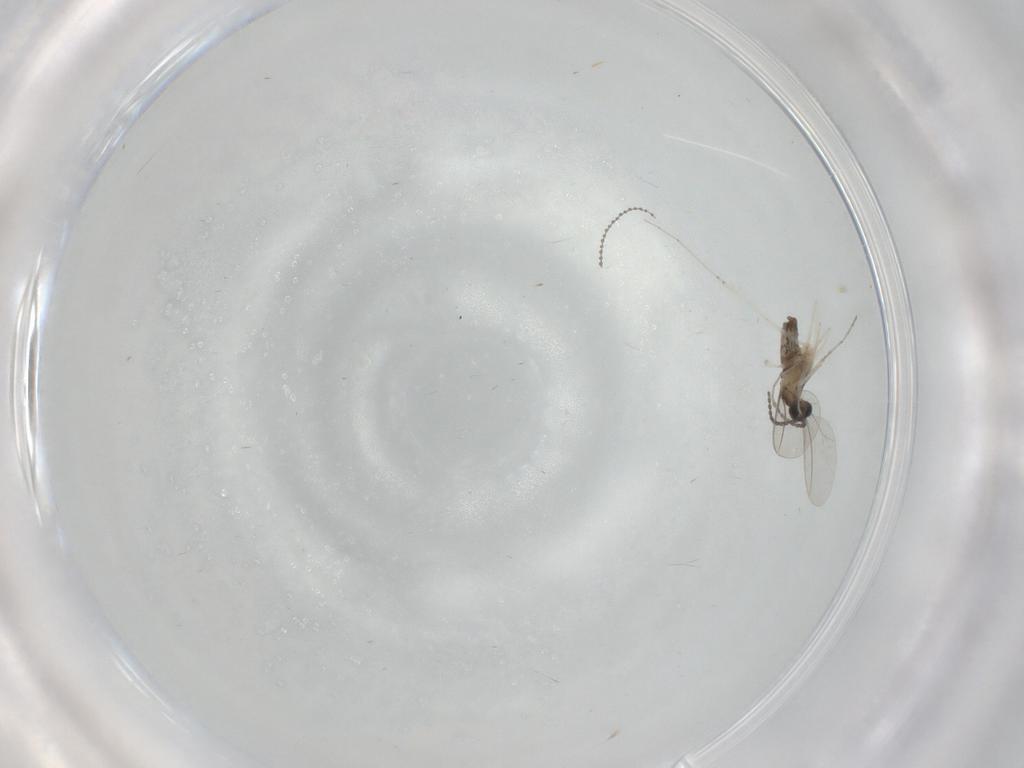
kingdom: Animalia
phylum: Arthropoda
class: Insecta
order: Diptera
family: Cecidomyiidae
